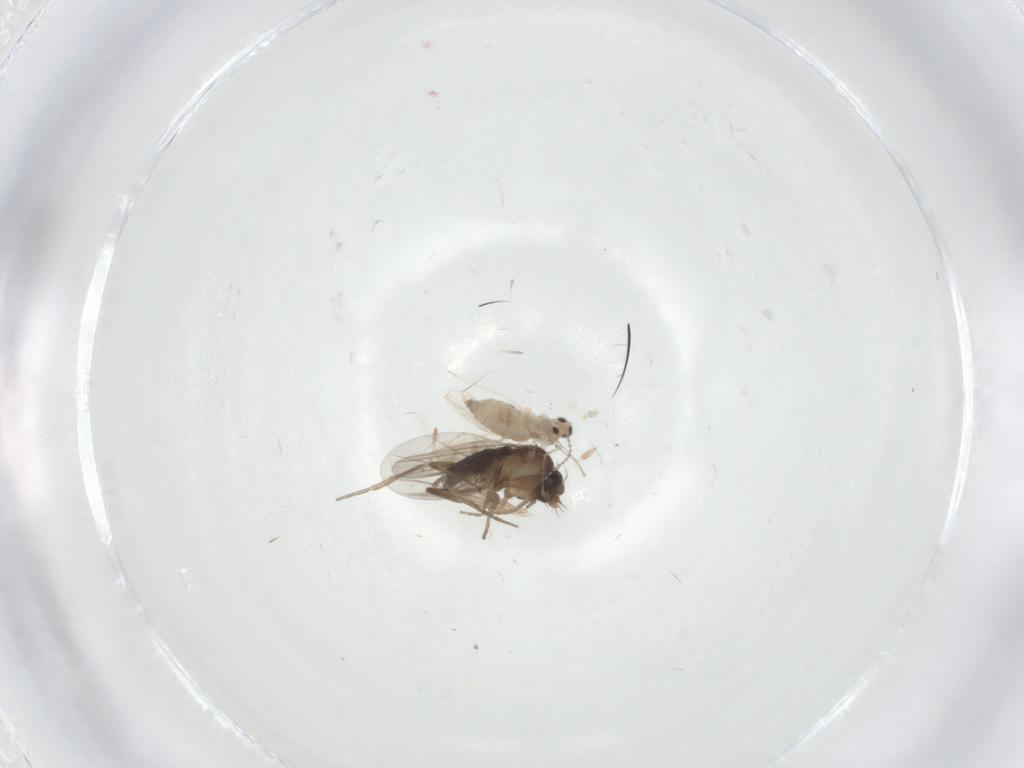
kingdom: Animalia
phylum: Arthropoda
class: Insecta
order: Diptera
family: Cecidomyiidae
